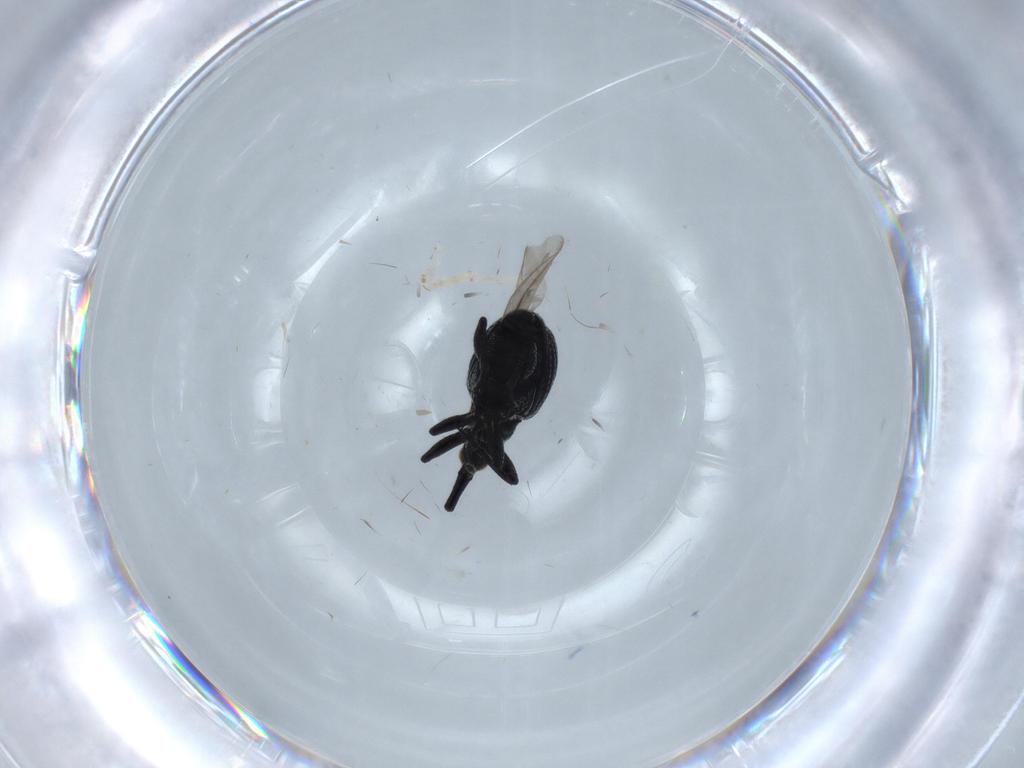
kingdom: Animalia
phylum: Arthropoda
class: Insecta
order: Coleoptera
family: Brentidae
